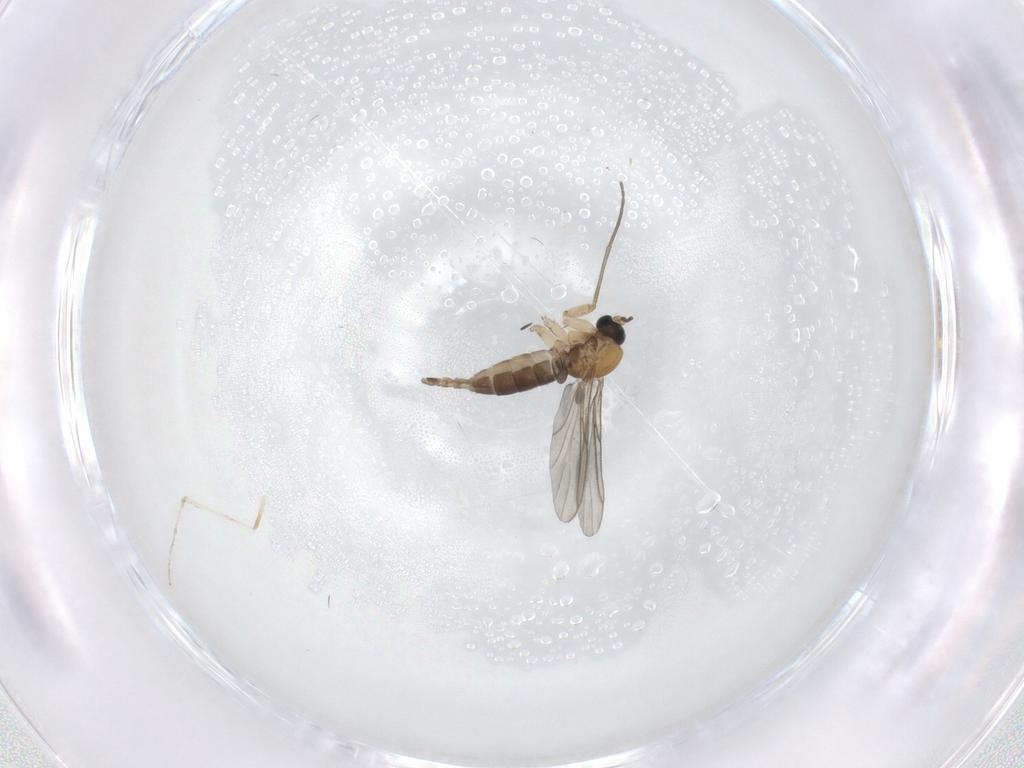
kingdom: Animalia
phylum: Arthropoda
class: Insecta
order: Diptera
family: Sciaridae
